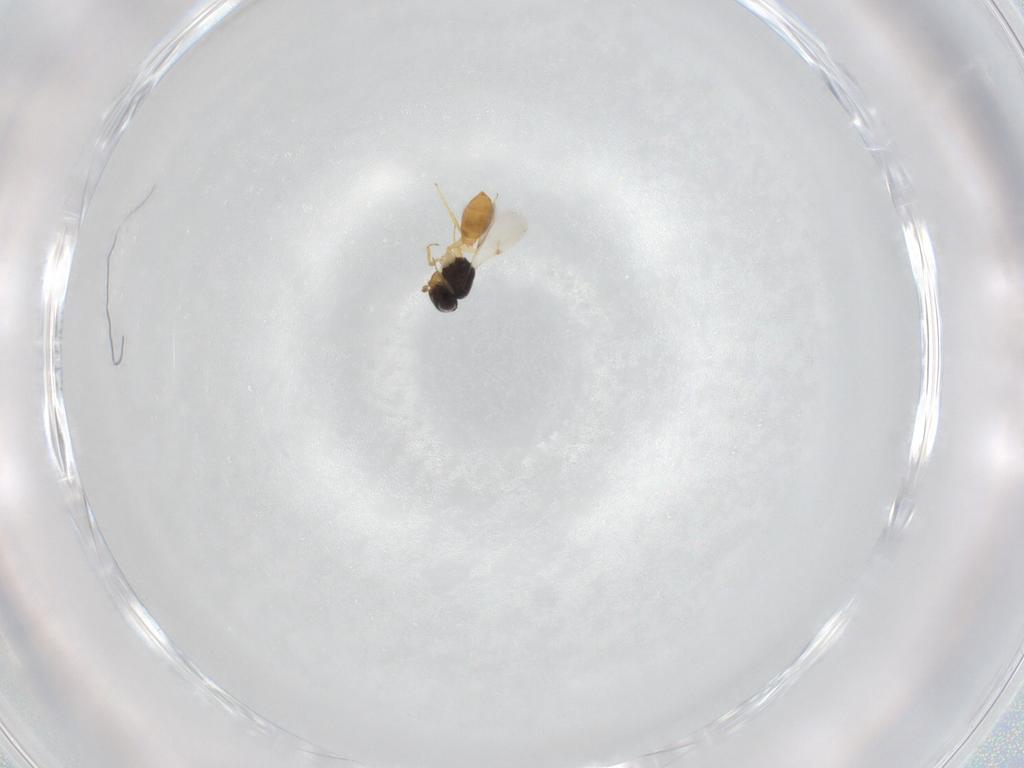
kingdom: Animalia
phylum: Arthropoda
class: Insecta
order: Hymenoptera
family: Scelionidae
